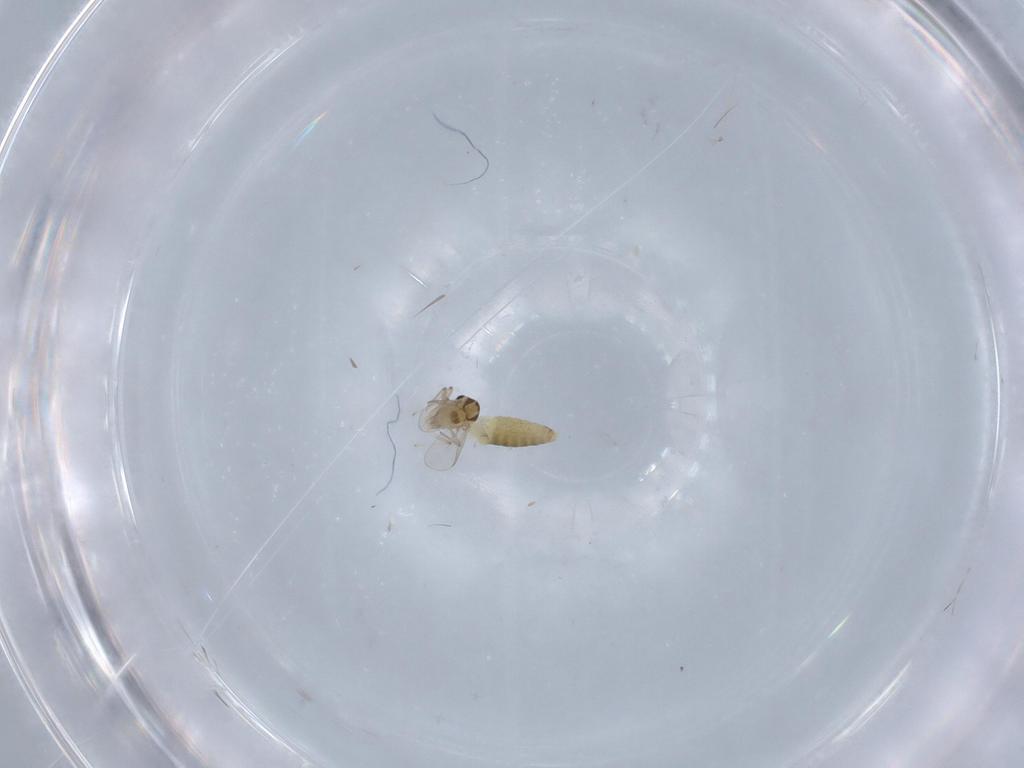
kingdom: Animalia
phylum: Arthropoda
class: Insecta
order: Diptera
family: Chironomidae
